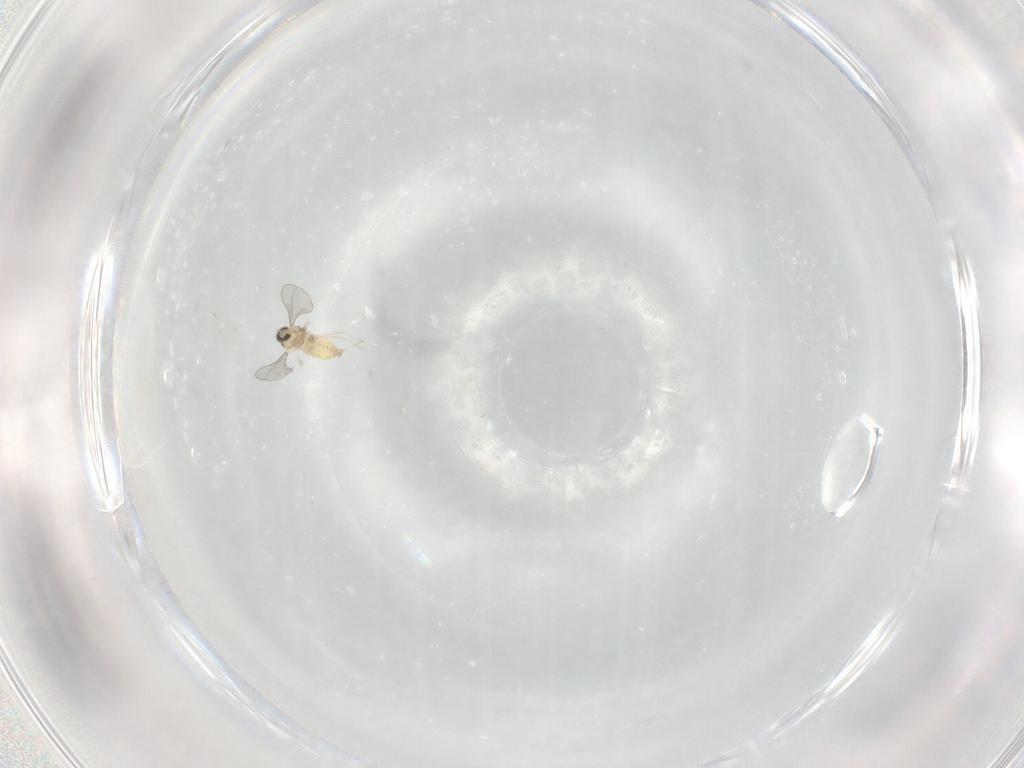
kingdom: Animalia
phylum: Arthropoda
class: Insecta
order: Diptera
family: Cecidomyiidae
